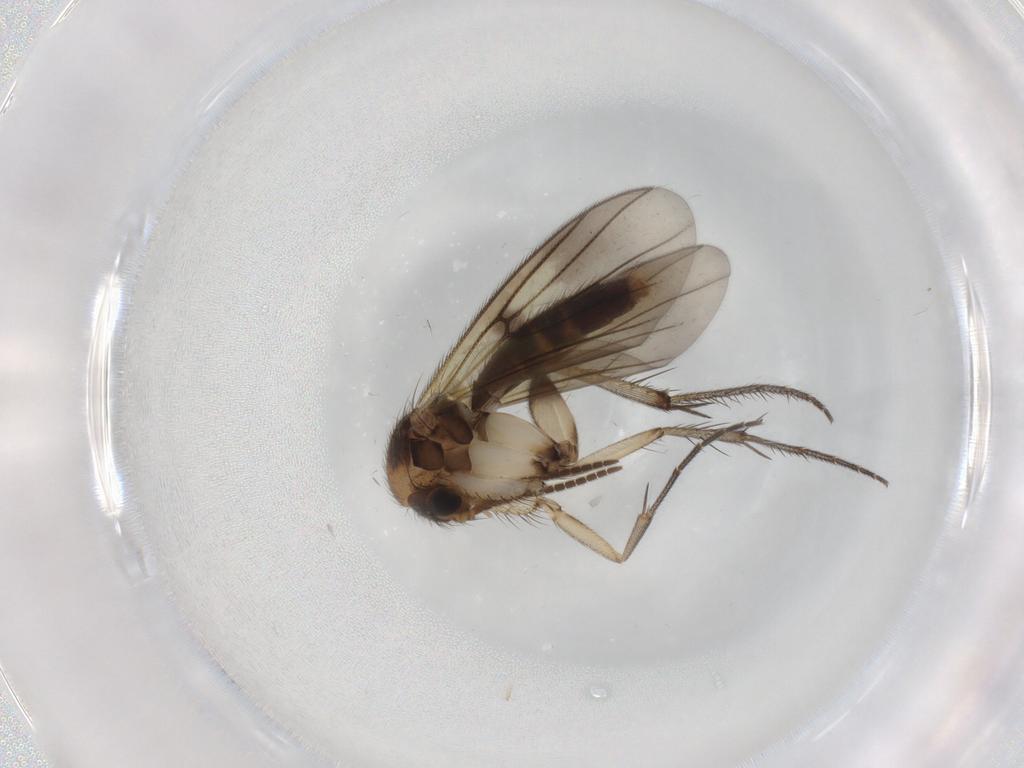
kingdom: Animalia
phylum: Arthropoda
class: Insecta
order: Diptera
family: Mycetophilidae
